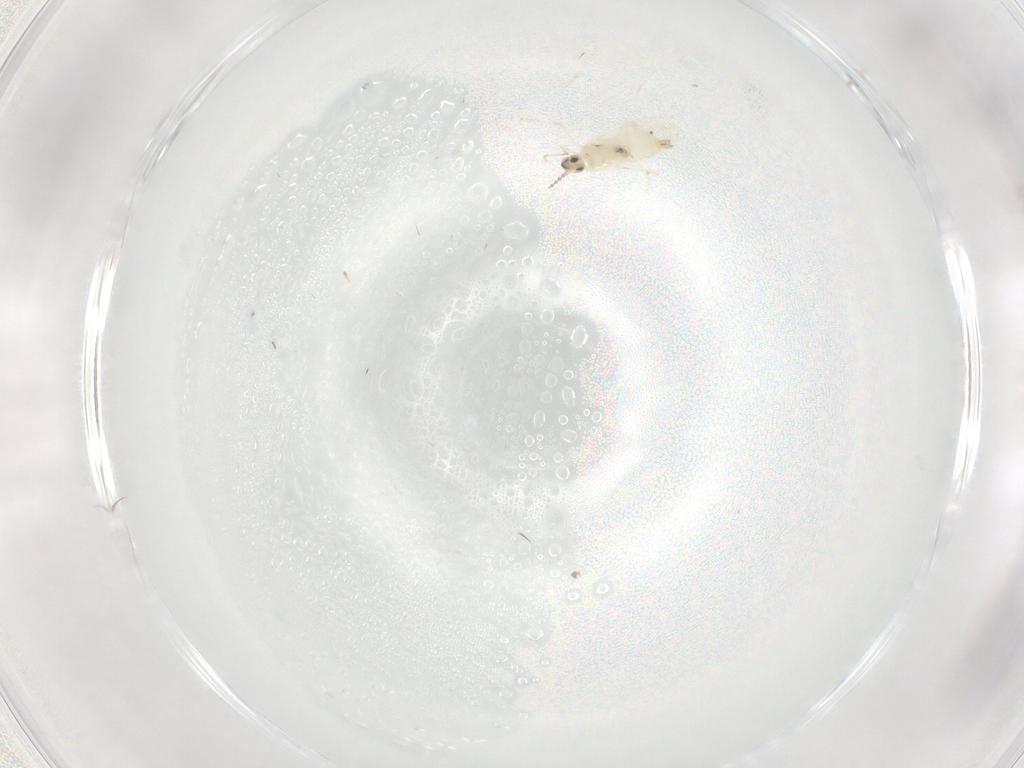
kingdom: Animalia
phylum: Arthropoda
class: Insecta
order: Diptera
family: Cecidomyiidae
